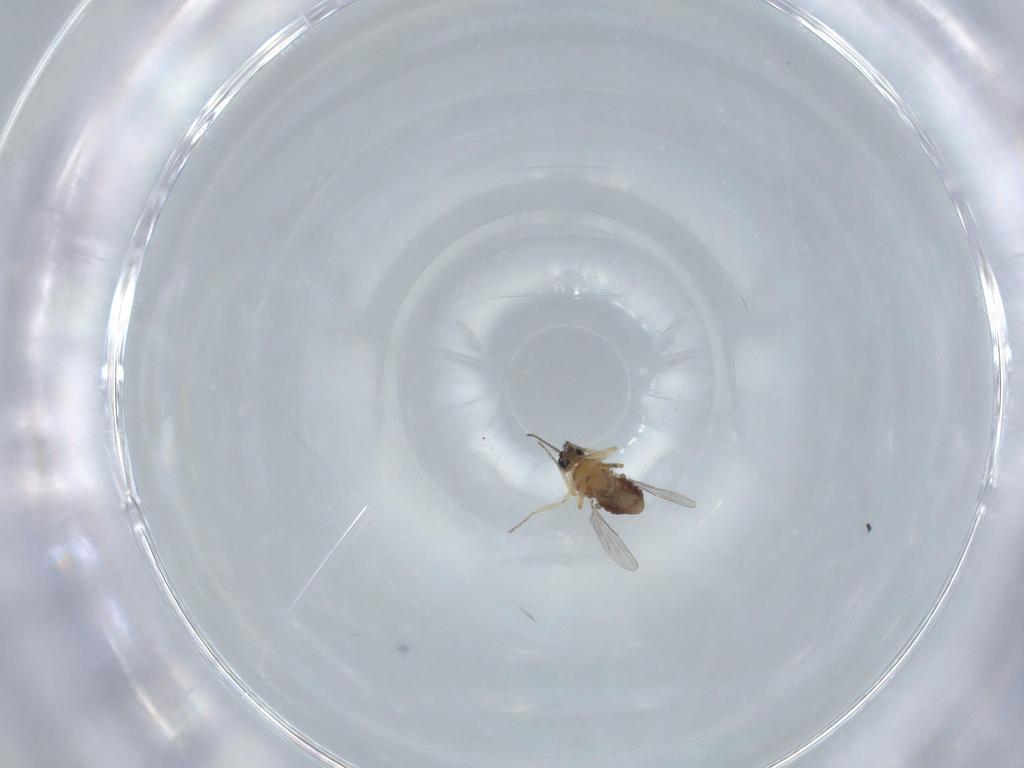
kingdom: Animalia
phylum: Arthropoda
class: Insecta
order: Diptera
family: Ceratopogonidae
